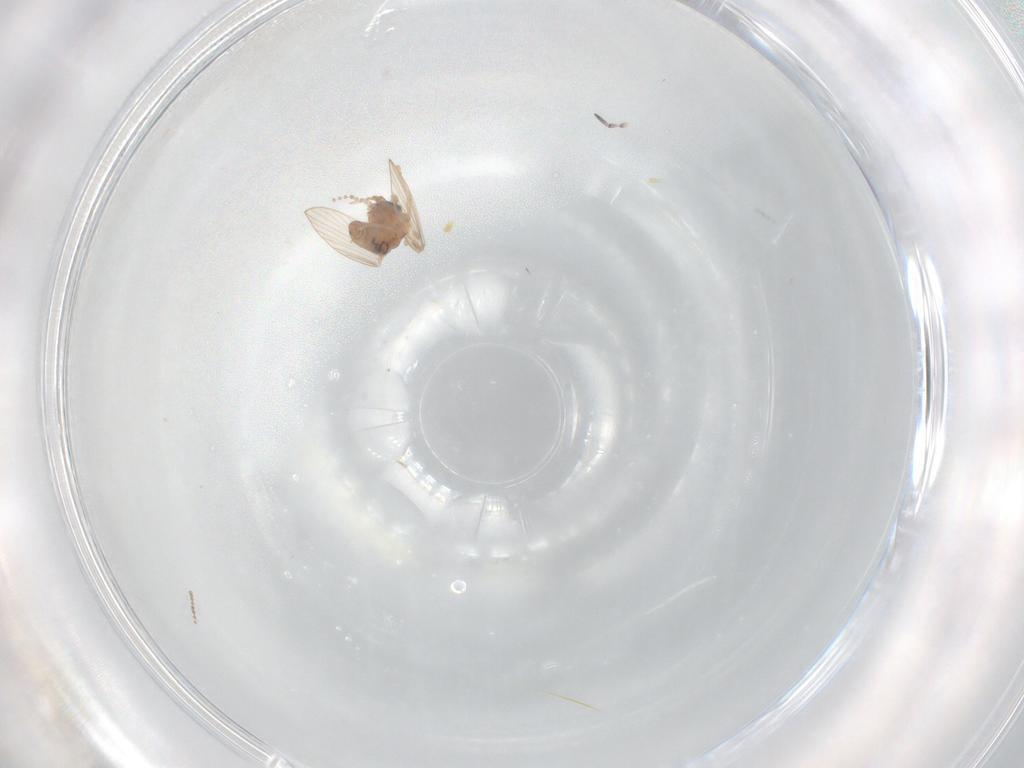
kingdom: Animalia
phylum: Arthropoda
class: Insecta
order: Diptera
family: Psychodidae
